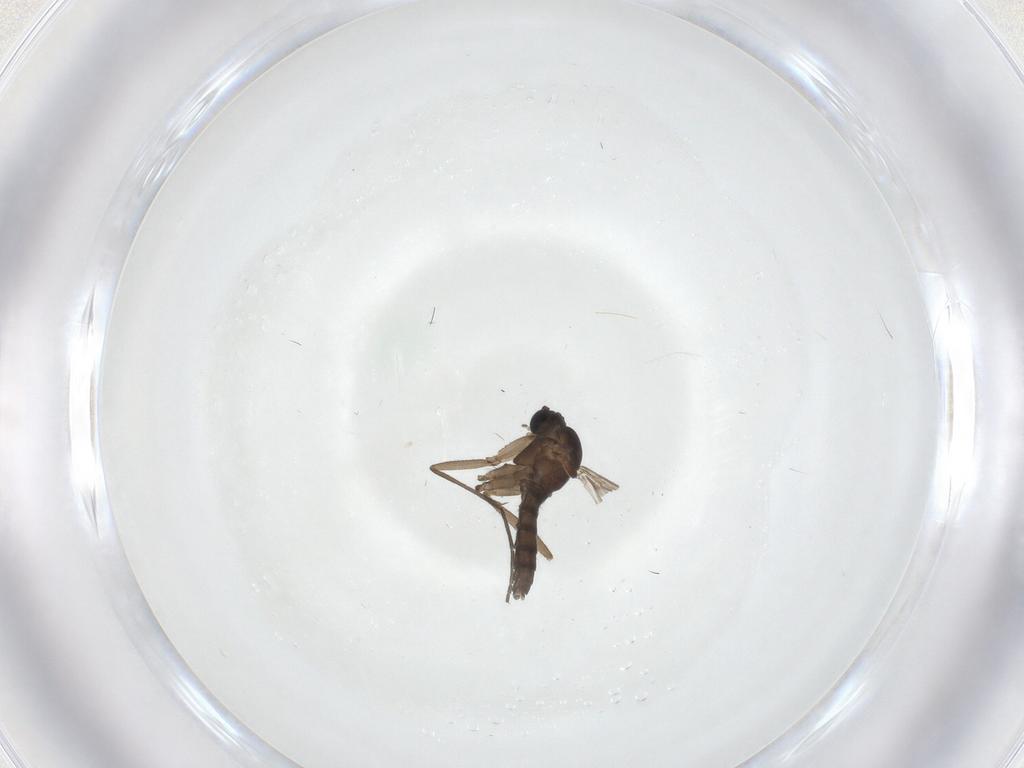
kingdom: Animalia
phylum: Arthropoda
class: Insecta
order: Diptera
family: Sciaridae
